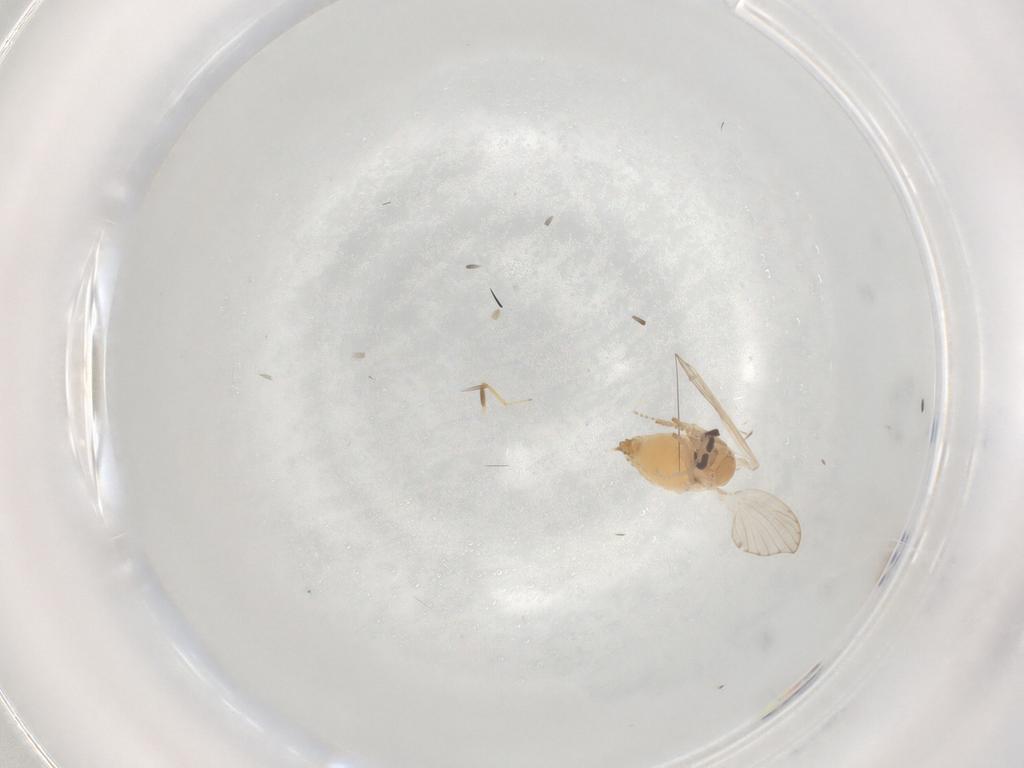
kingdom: Animalia
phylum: Arthropoda
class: Insecta
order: Diptera
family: Psychodidae
